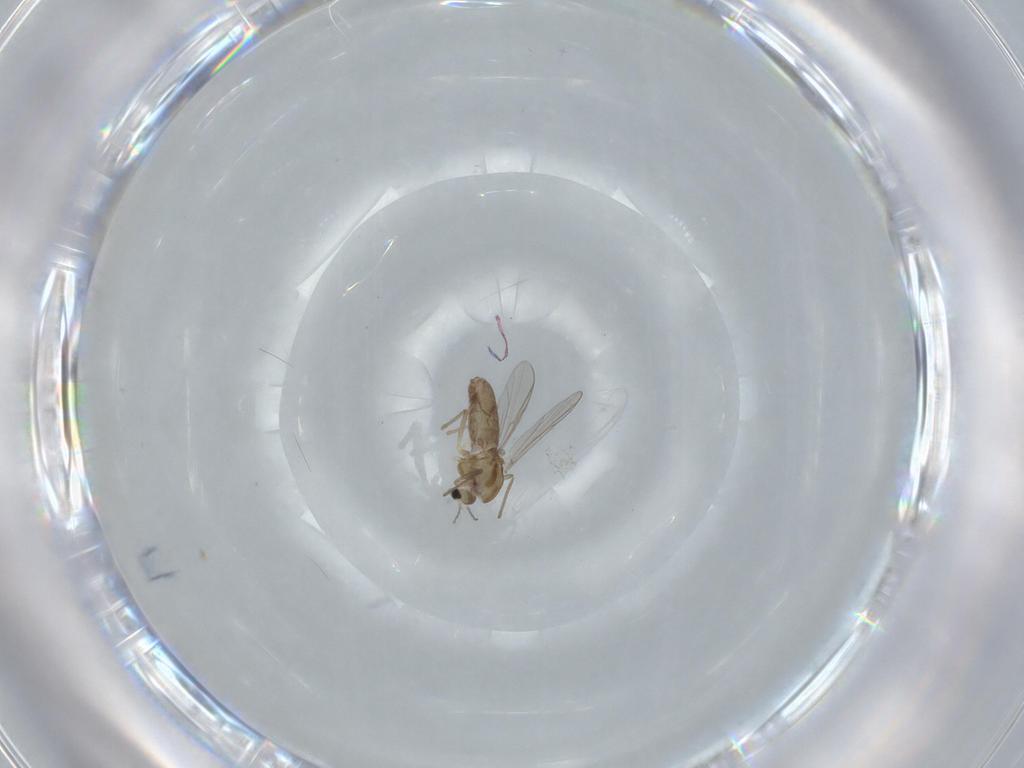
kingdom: Animalia
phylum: Arthropoda
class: Insecta
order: Diptera
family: Chironomidae
